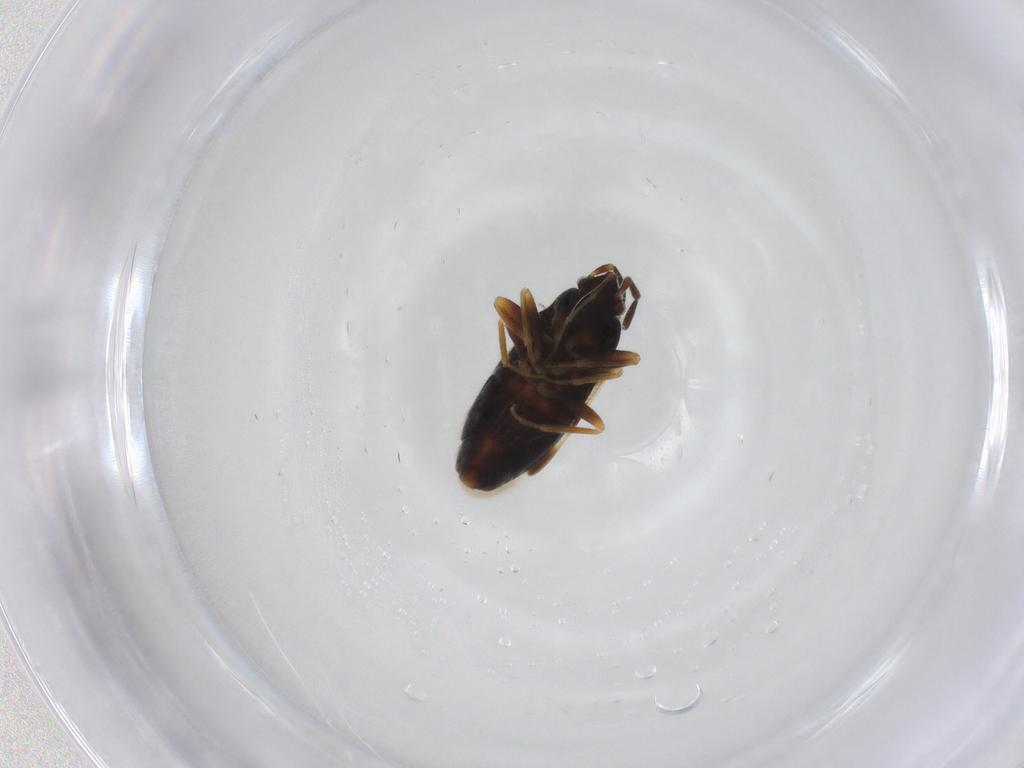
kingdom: Animalia
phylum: Arthropoda
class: Insecta
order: Hemiptera
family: Rhyparochromidae
